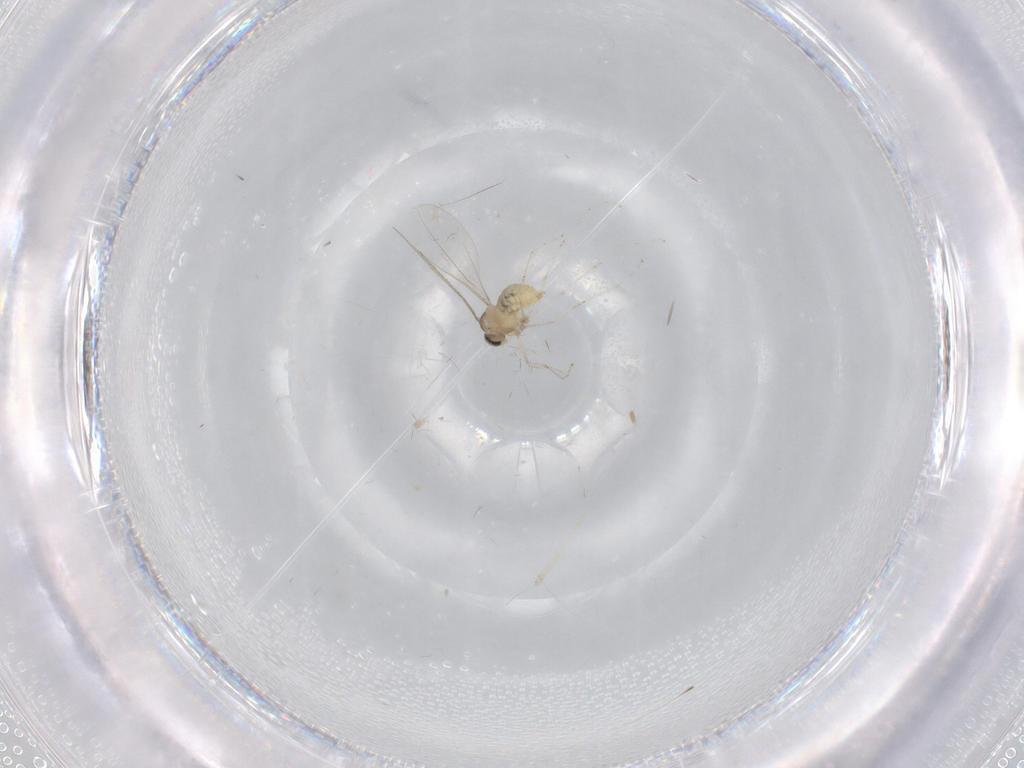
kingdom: Animalia
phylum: Arthropoda
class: Insecta
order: Diptera
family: Cecidomyiidae
